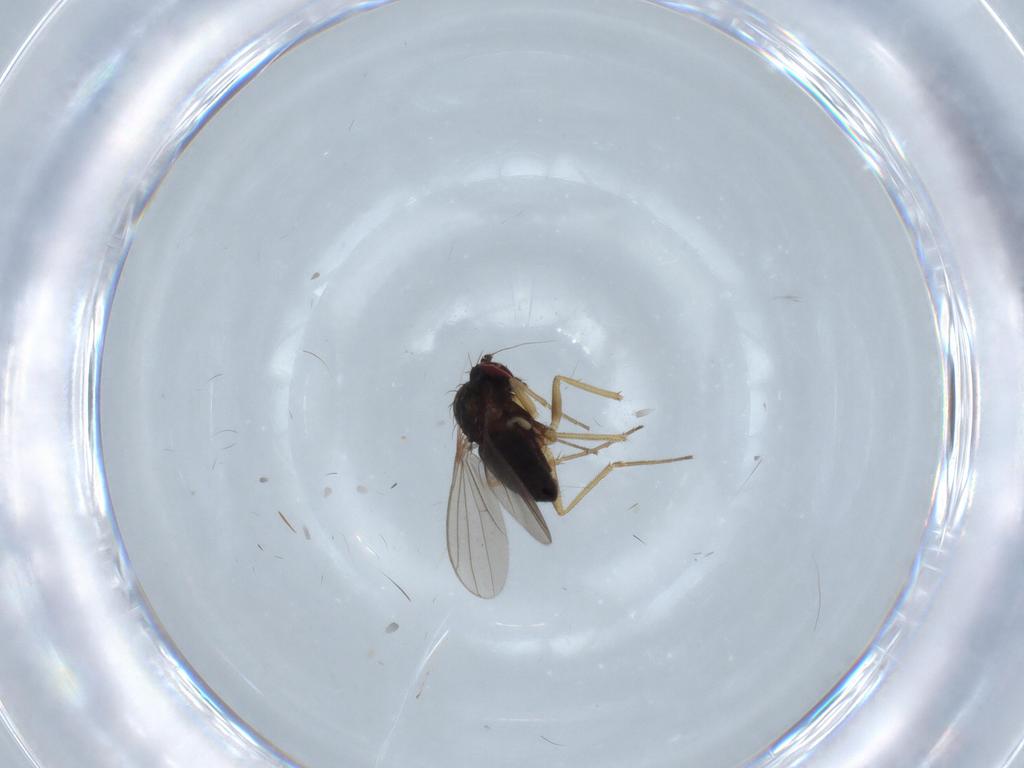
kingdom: Animalia
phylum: Arthropoda
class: Insecta
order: Diptera
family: Dolichopodidae
